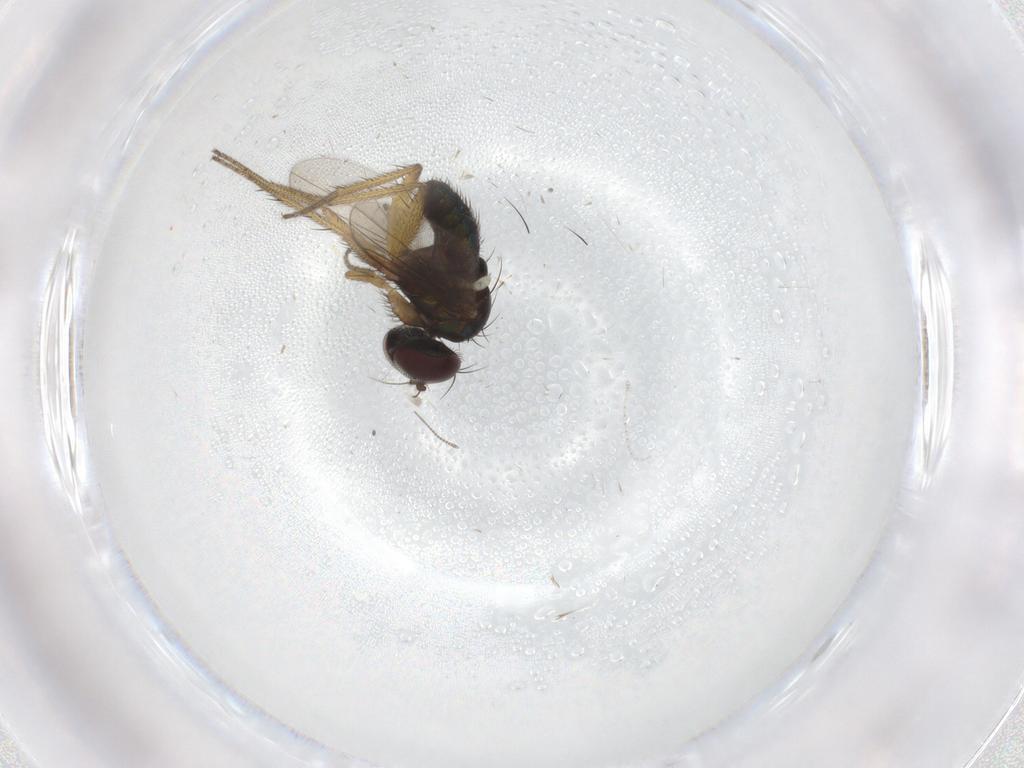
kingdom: Animalia
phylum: Arthropoda
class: Insecta
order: Diptera
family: Sciaridae
